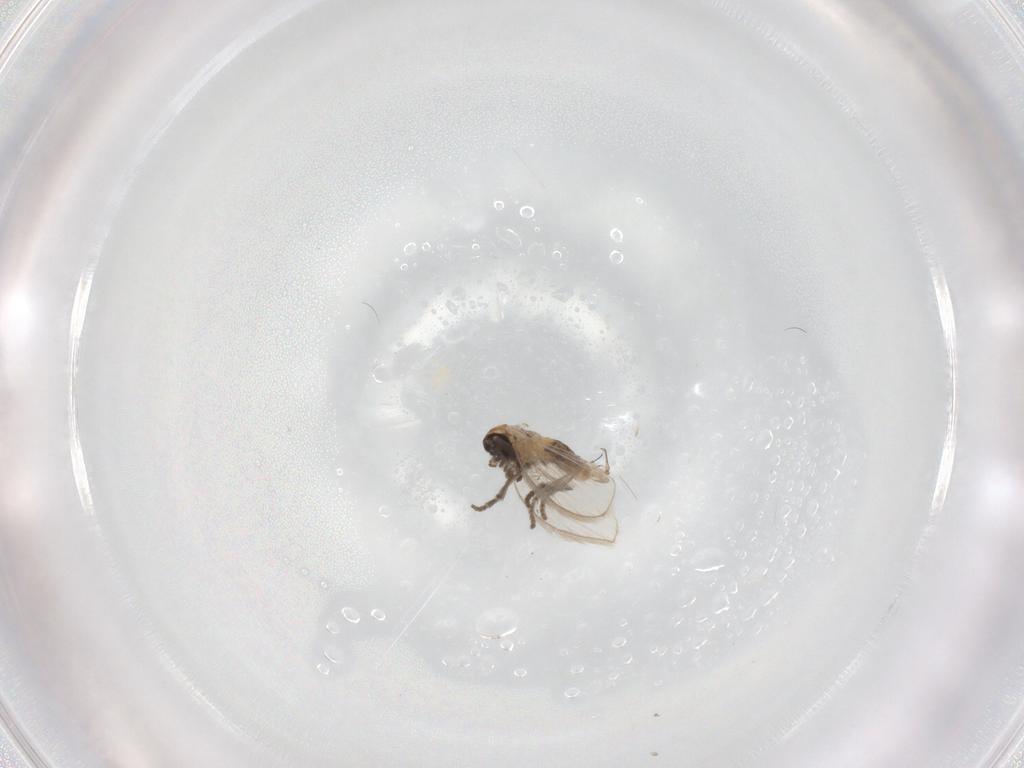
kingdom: Animalia
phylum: Arthropoda
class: Insecta
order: Diptera
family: Psychodidae
